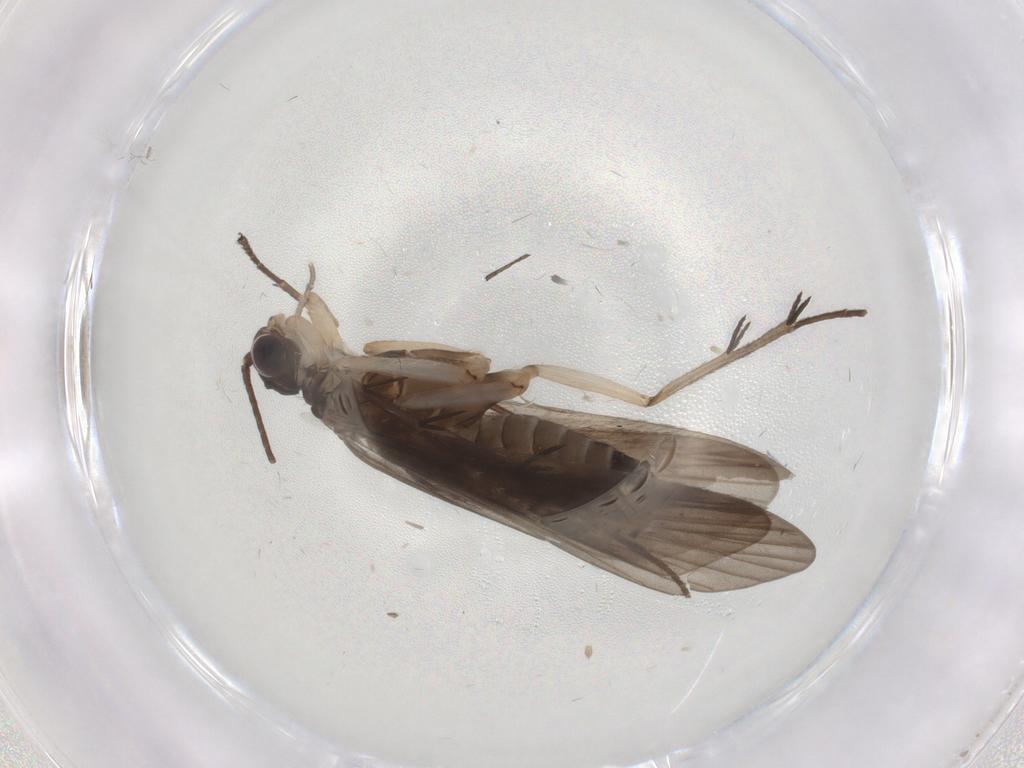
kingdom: Animalia
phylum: Arthropoda
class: Insecta
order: Trichoptera
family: Philopotamidae
